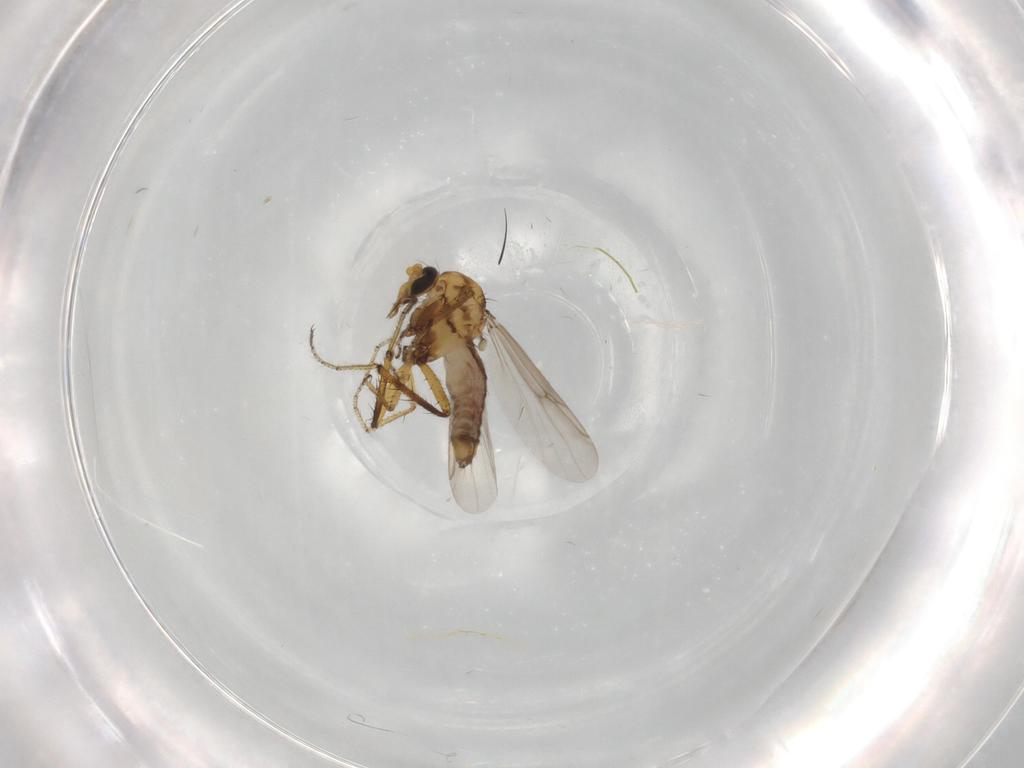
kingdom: Animalia
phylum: Arthropoda
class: Insecta
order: Diptera
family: Ceratopogonidae
